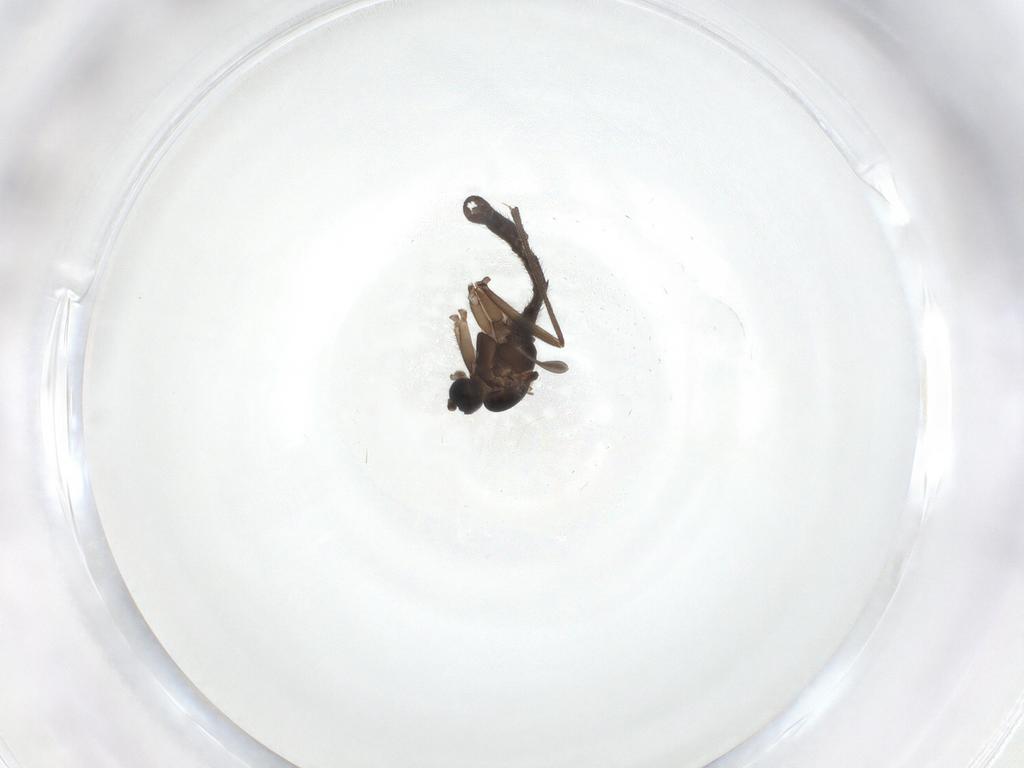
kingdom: Animalia
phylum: Arthropoda
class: Insecta
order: Diptera
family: Sciaridae
